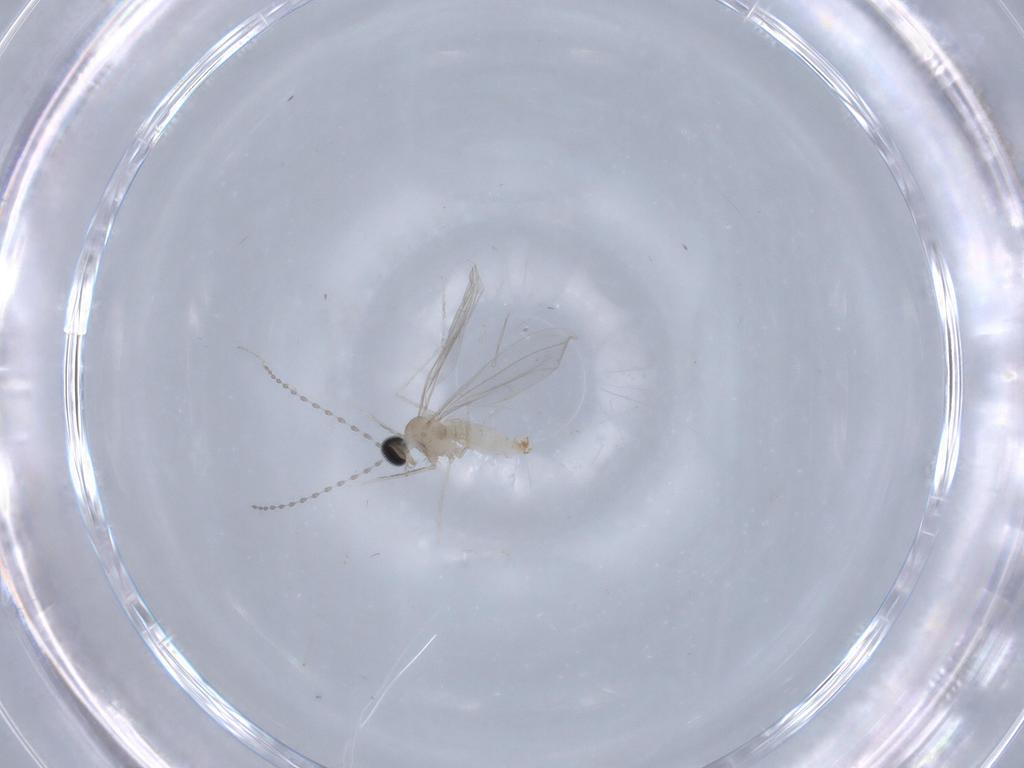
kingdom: Animalia
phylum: Arthropoda
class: Insecta
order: Diptera
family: Cecidomyiidae
